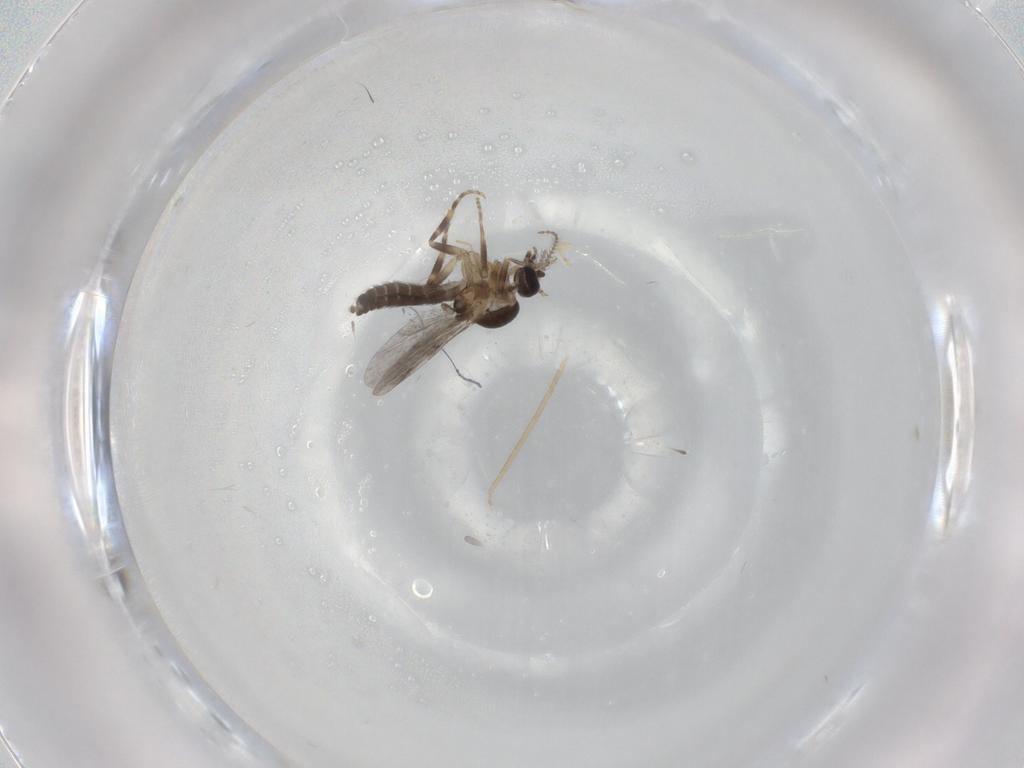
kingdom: Animalia
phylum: Arthropoda
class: Insecta
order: Diptera
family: Ceratopogonidae
